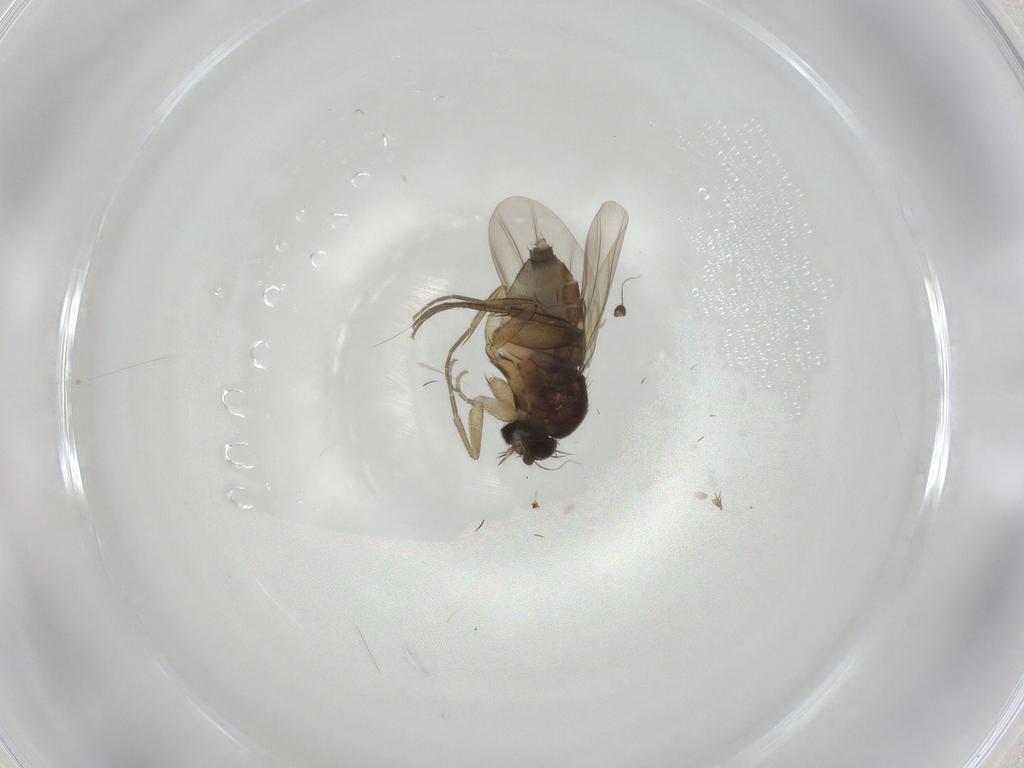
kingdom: Animalia
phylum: Arthropoda
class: Insecta
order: Diptera
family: Phoridae
